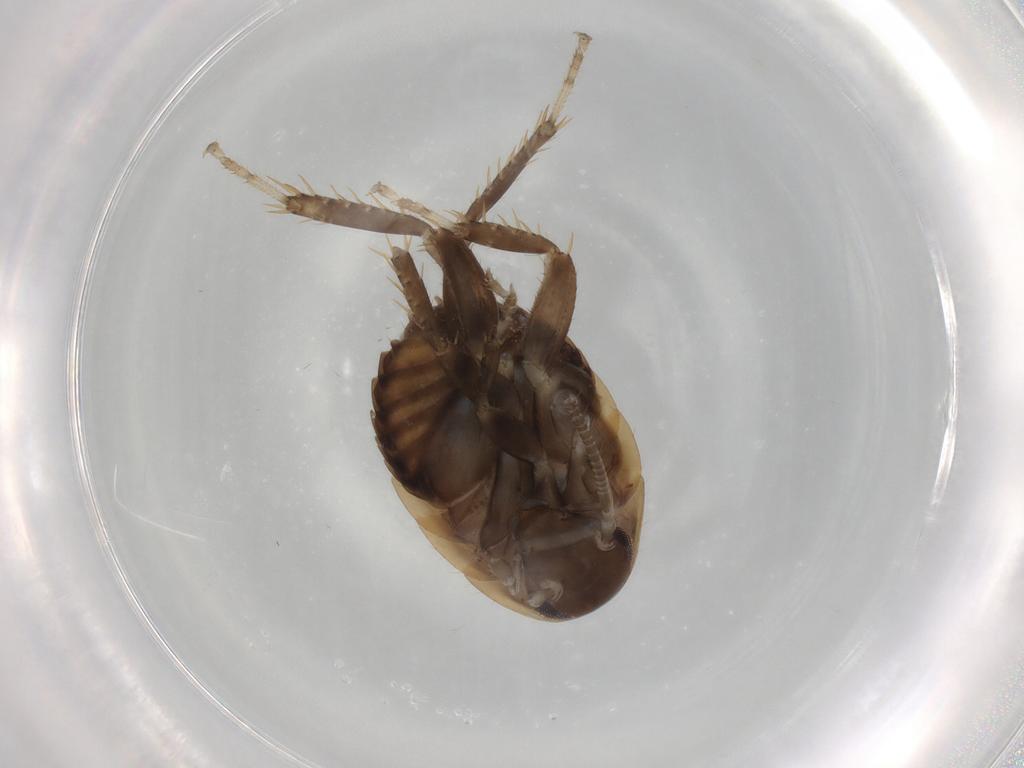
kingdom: Animalia
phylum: Arthropoda
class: Insecta
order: Blattodea
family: Ectobiidae
